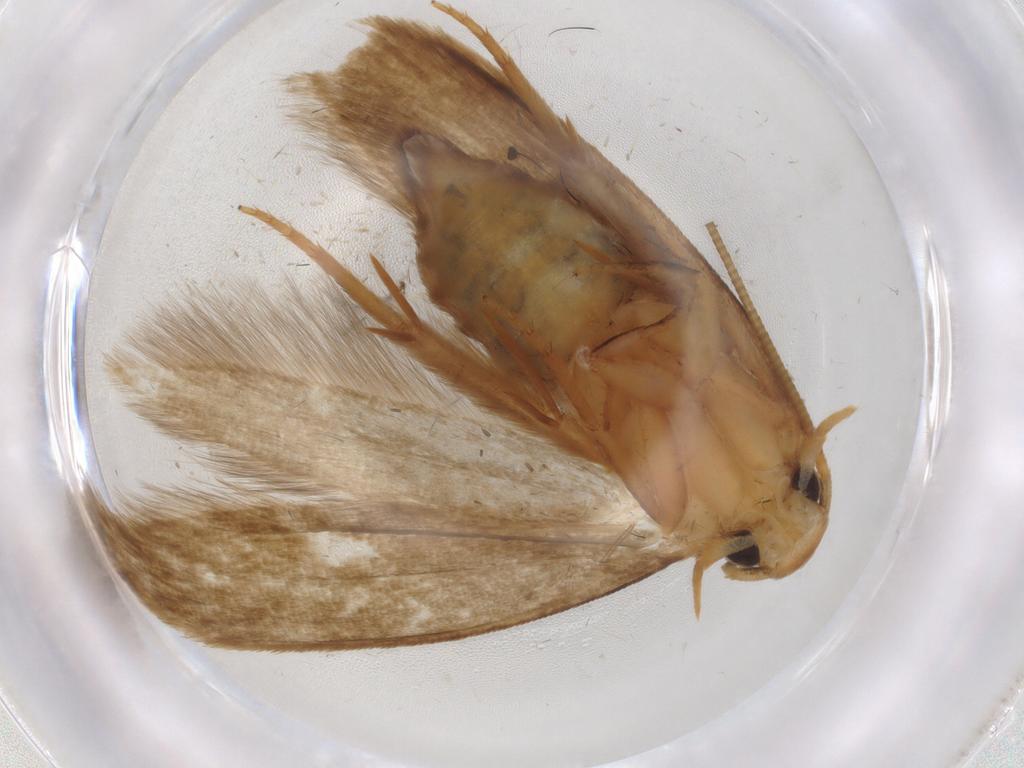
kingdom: Animalia
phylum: Arthropoda
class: Insecta
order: Lepidoptera
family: Tineidae
